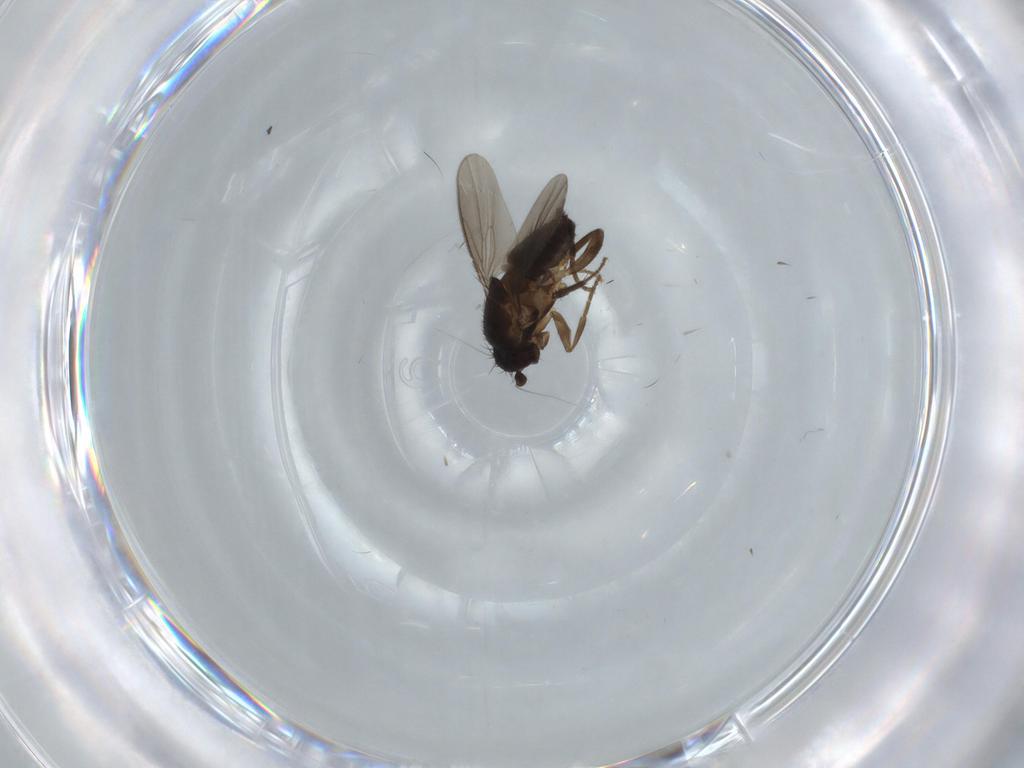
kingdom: Animalia
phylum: Arthropoda
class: Insecta
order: Diptera
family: Sphaeroceridae
